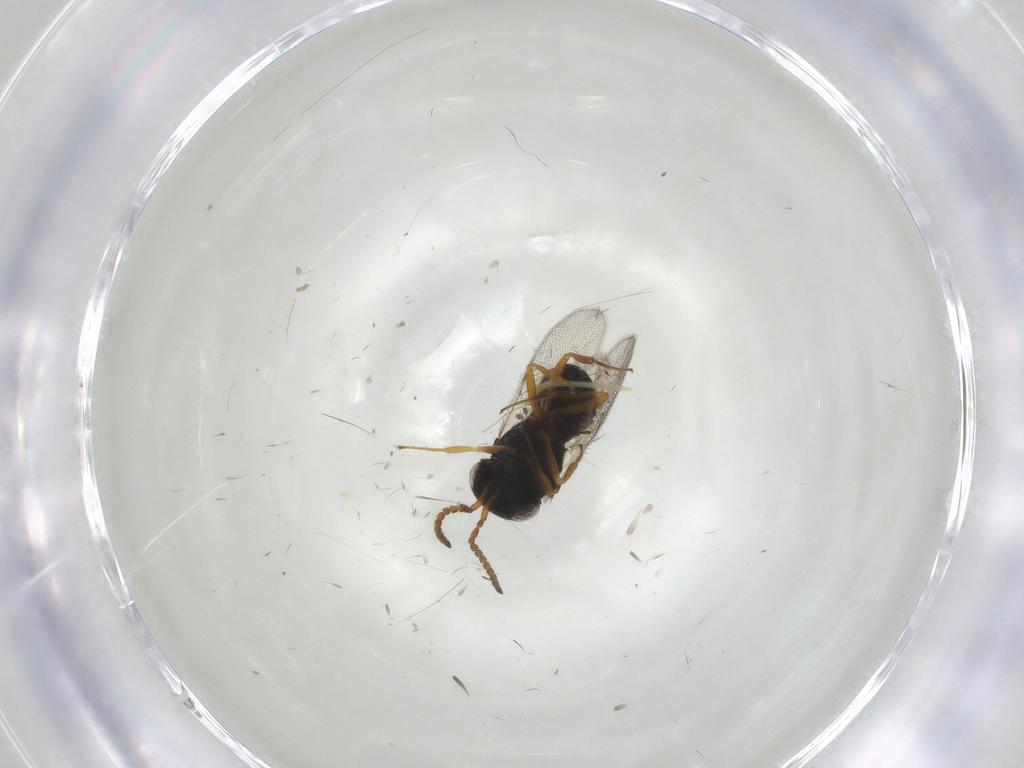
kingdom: Animalia
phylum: Arthropoda
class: Insecta
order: Hymenoptera
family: Scelionidae
